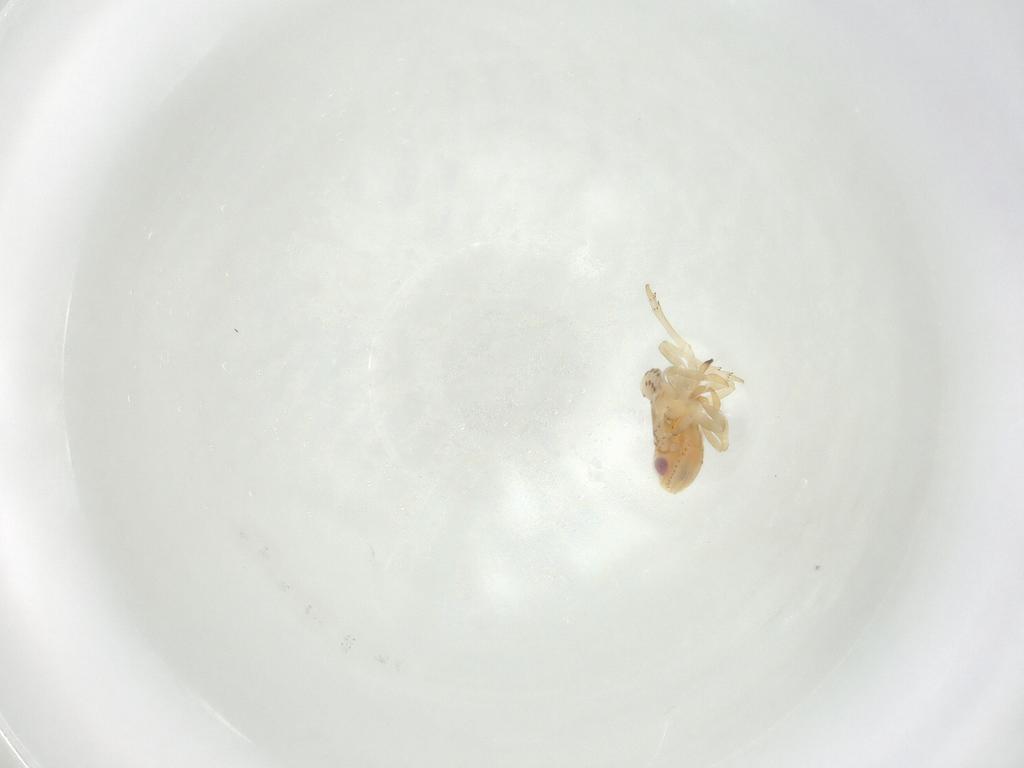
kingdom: Animalia
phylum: Arthropoda
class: Insecta
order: Hemiptera
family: Tropiduchidae
